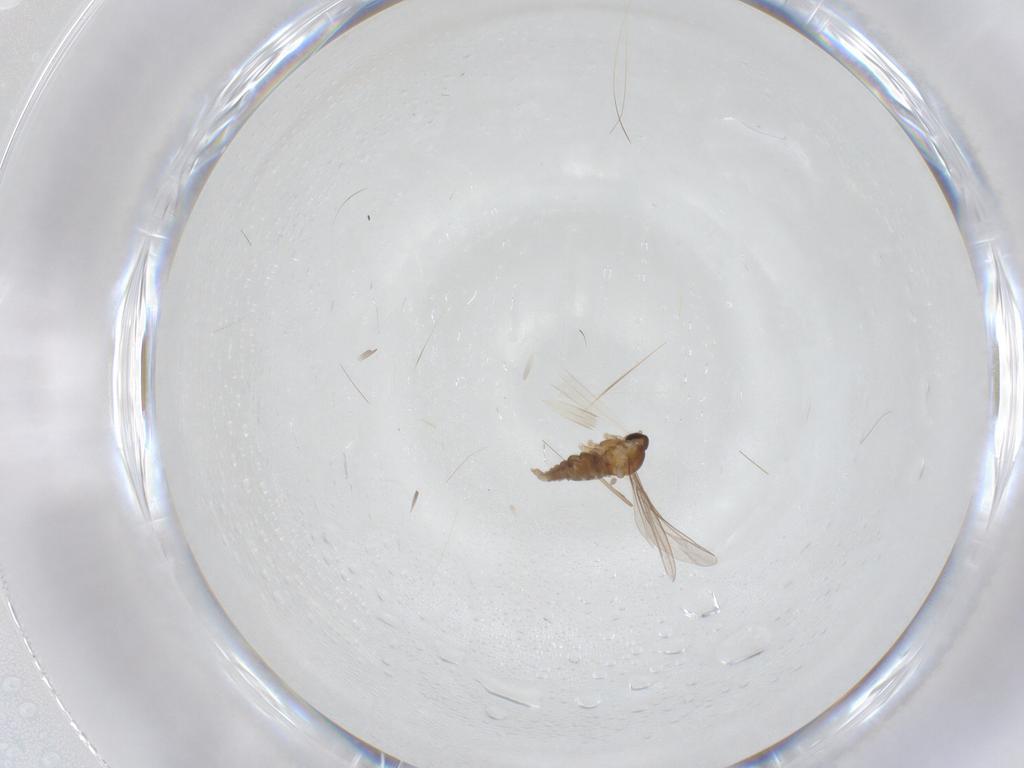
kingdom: Animalia
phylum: Arthropoda
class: Insecta
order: Diptera
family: Cecidomyiidae
